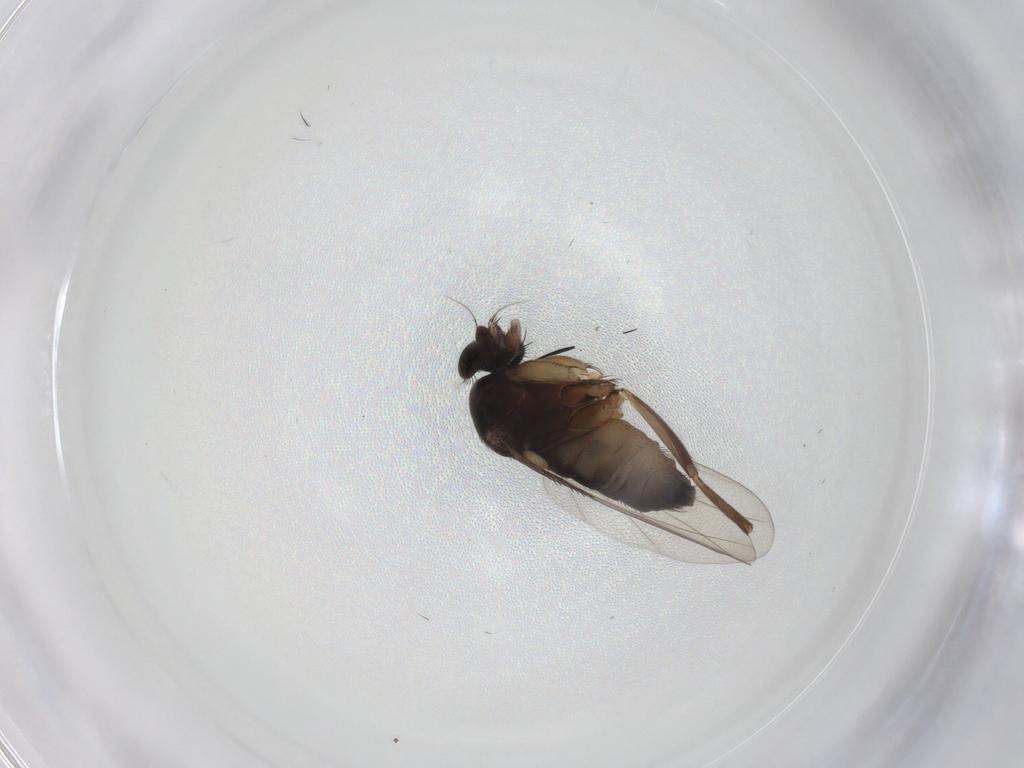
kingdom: Animalia
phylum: Arthropoda
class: Insecta
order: Diptera
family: Phoridae
